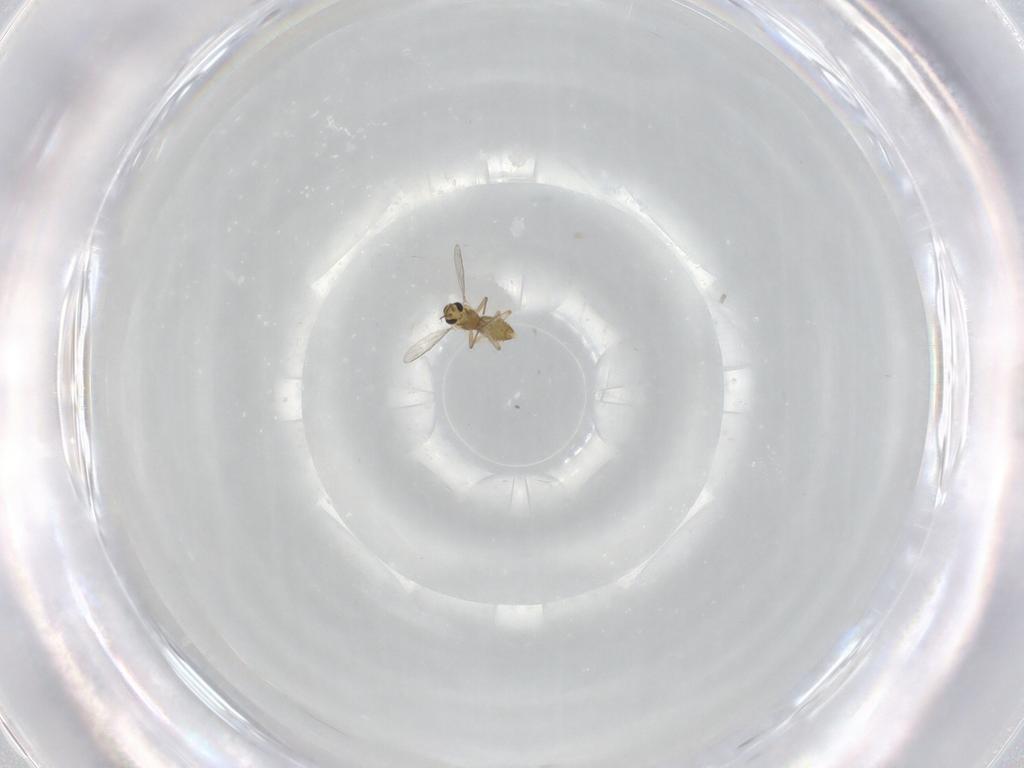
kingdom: Animalia
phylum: Arthropoda
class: Insecta
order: Diptera
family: Chironomidae
